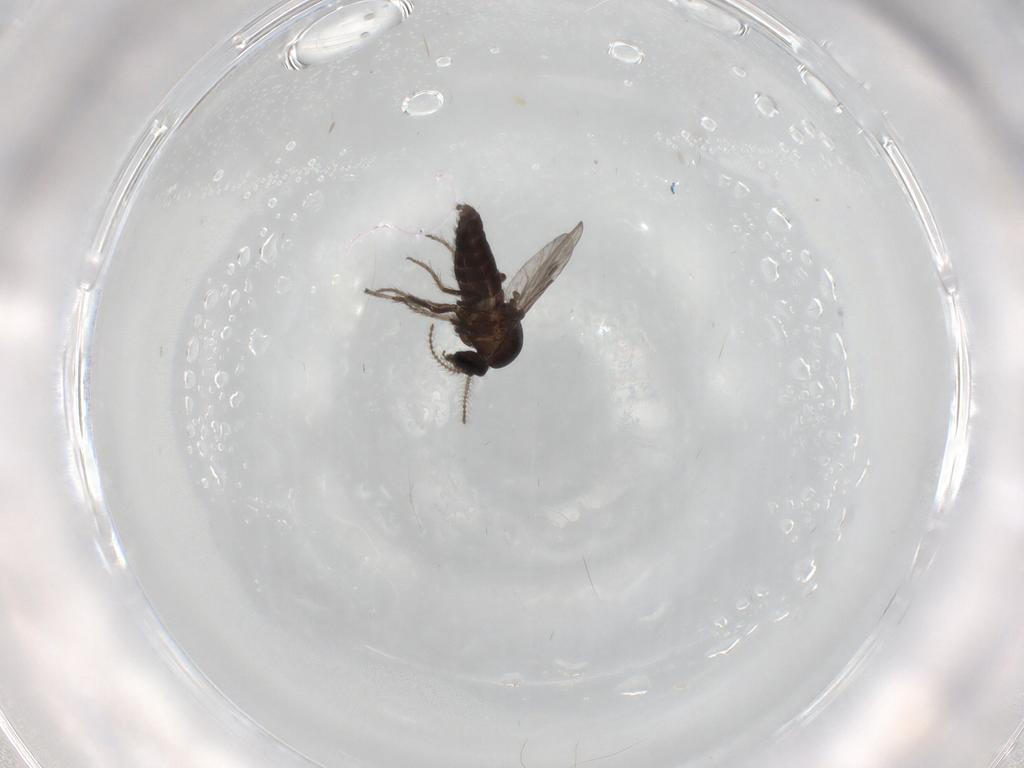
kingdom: Animalia
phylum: Arthropoda
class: Insecta
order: Diptera
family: Ceratopogonidae
